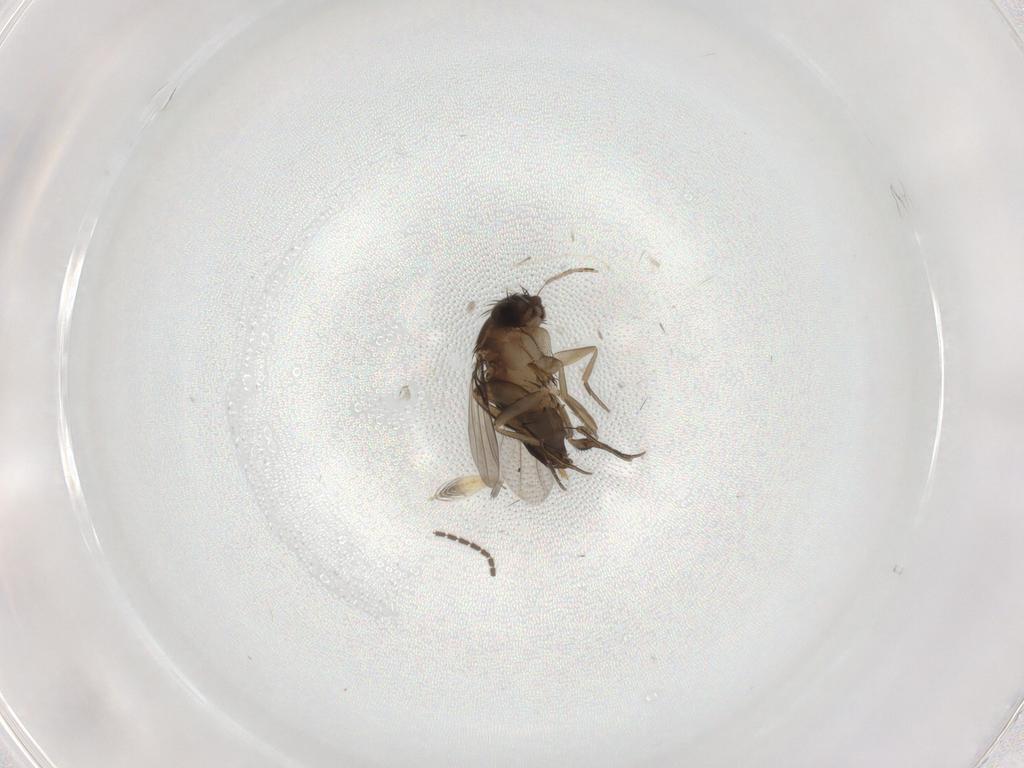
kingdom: Animalia
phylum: Arthropoda
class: Insecta
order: Diptera
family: Phoridae
